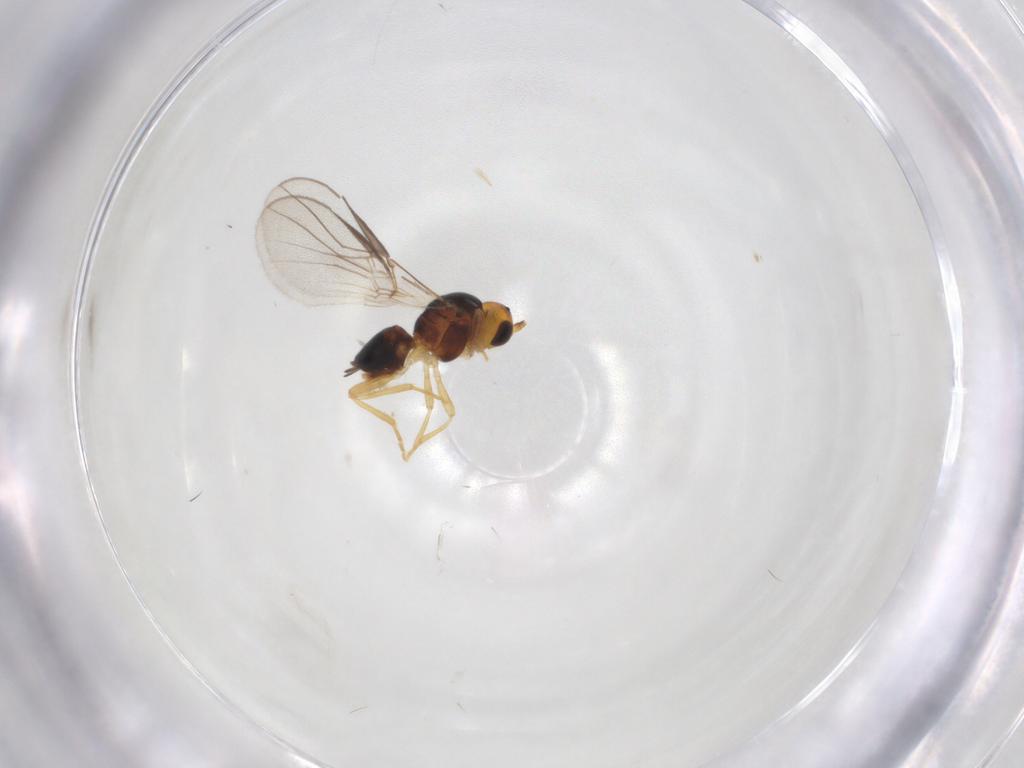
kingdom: Animalia
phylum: Arthropoda
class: Insecta
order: Hymenoptera
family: Braconidae
